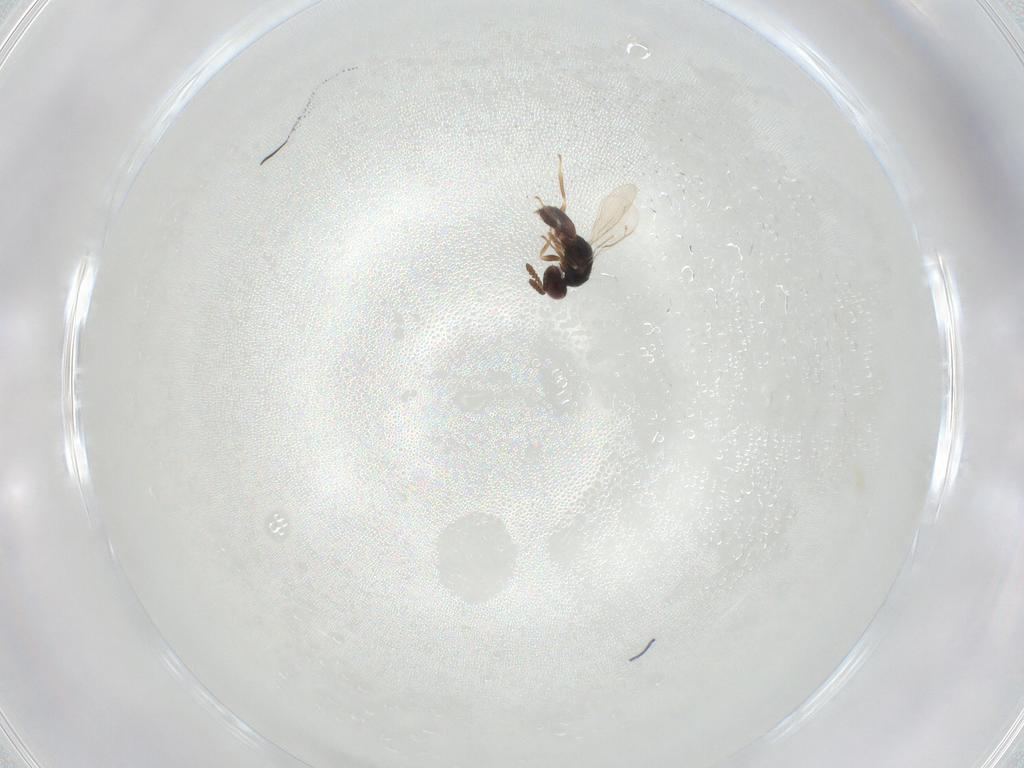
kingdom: Animalia
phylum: Arthropoda
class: Insecta
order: Hymenoptera
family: Eulophidae
